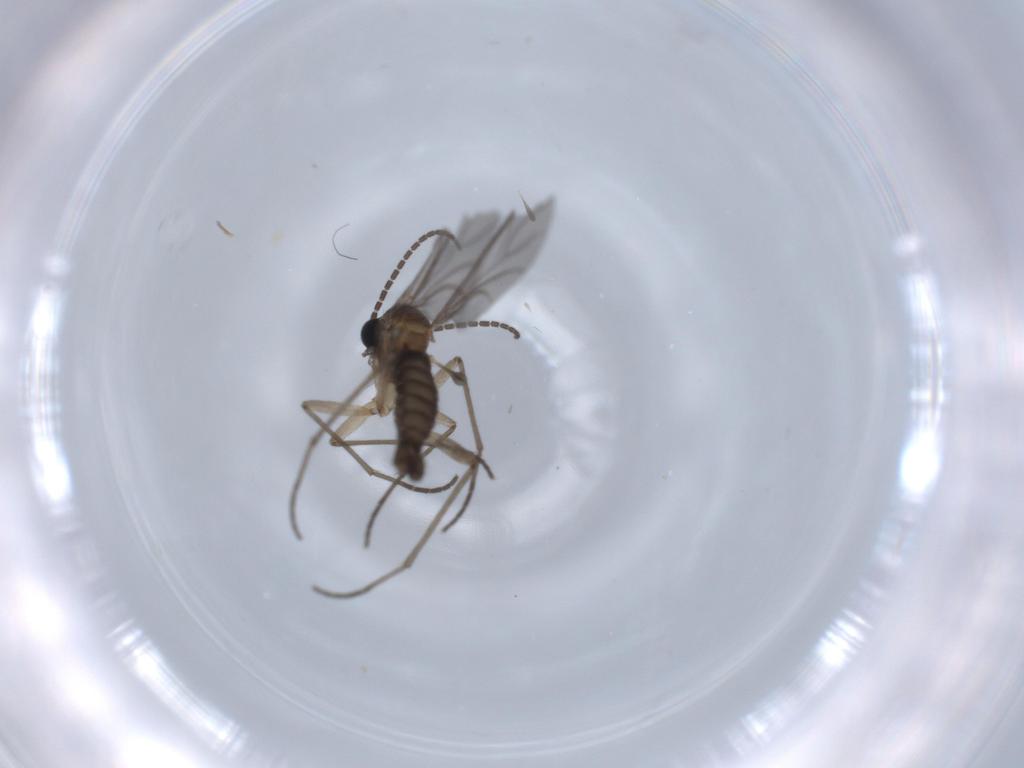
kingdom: Animalia
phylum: Arthropoda
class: Insecta
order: Diptera
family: Sciaridae
